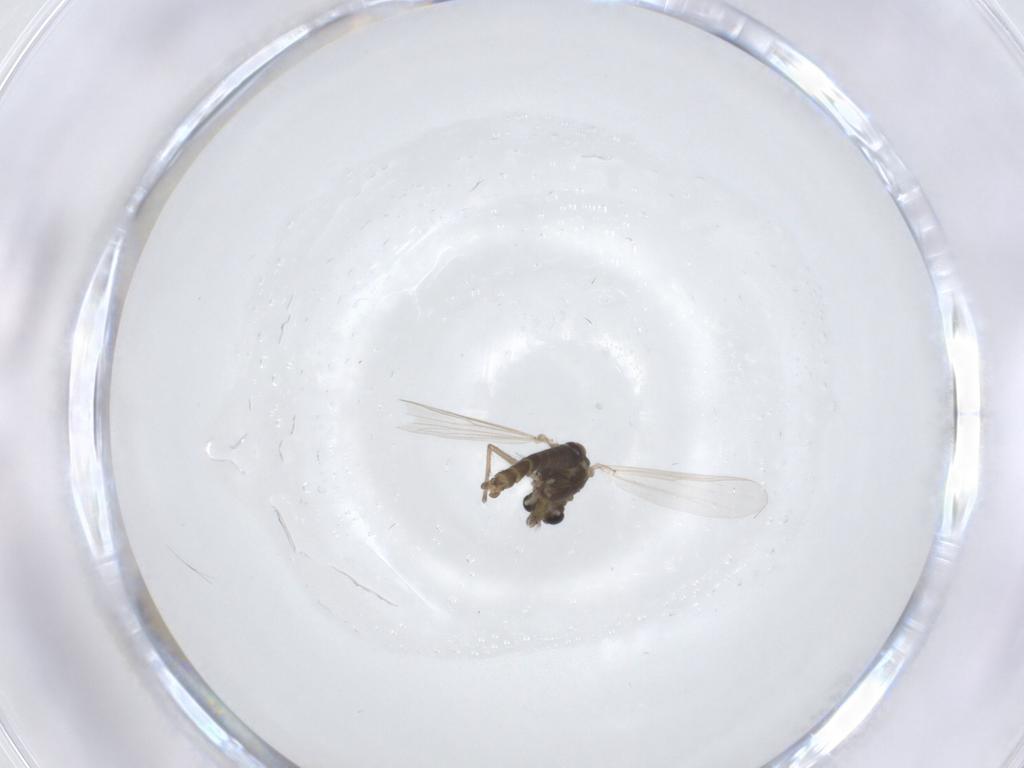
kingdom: Animalia
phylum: Arthropoda
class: Insecta
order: Diptera
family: Chironomidae
